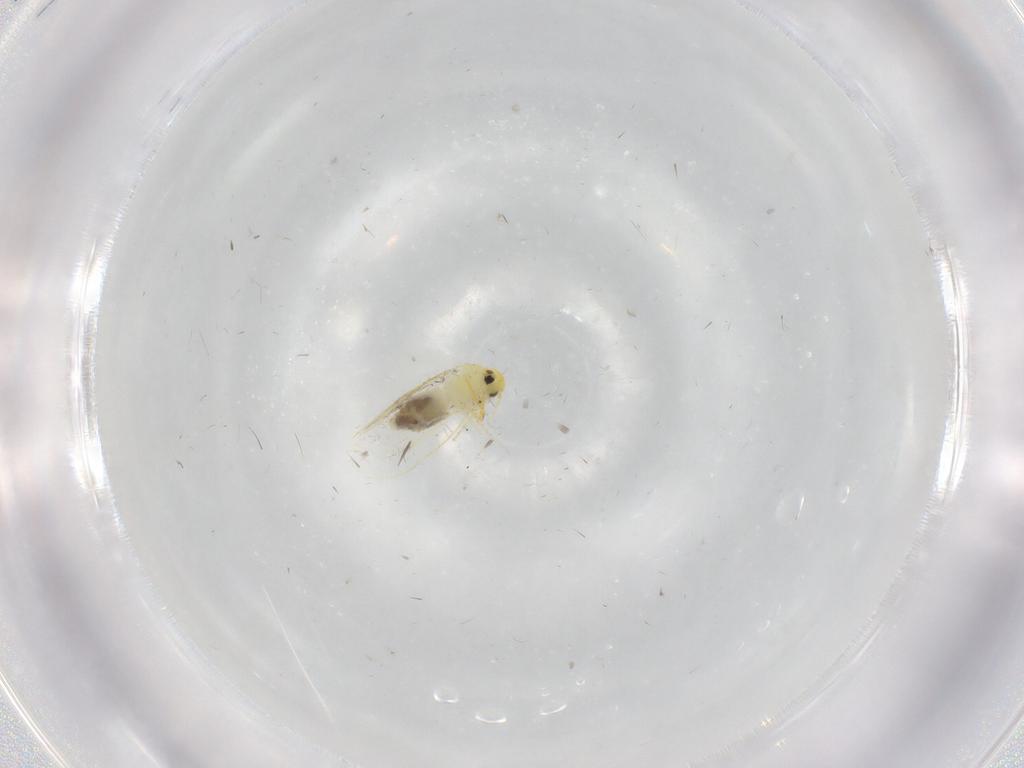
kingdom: Animalia
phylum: Arthropoda
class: Insecta
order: Hemiptera
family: Aleyrodidae
